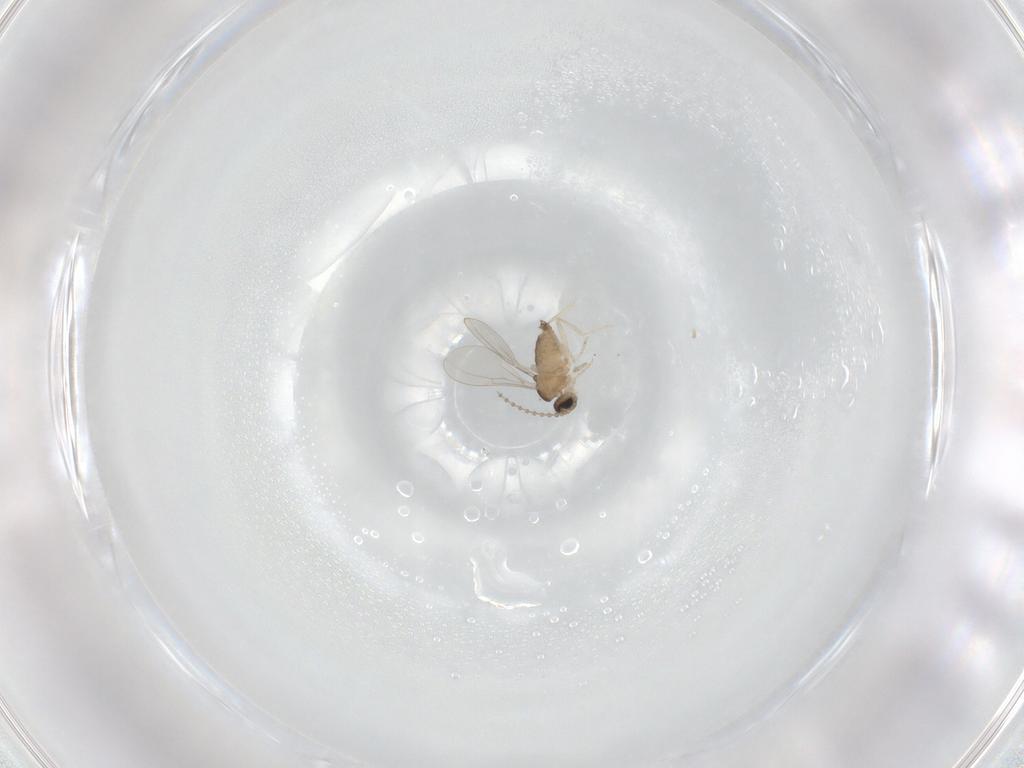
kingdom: Animalia
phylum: Arthropoda
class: Insecta
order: Diptera
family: Cecidomyiidae
